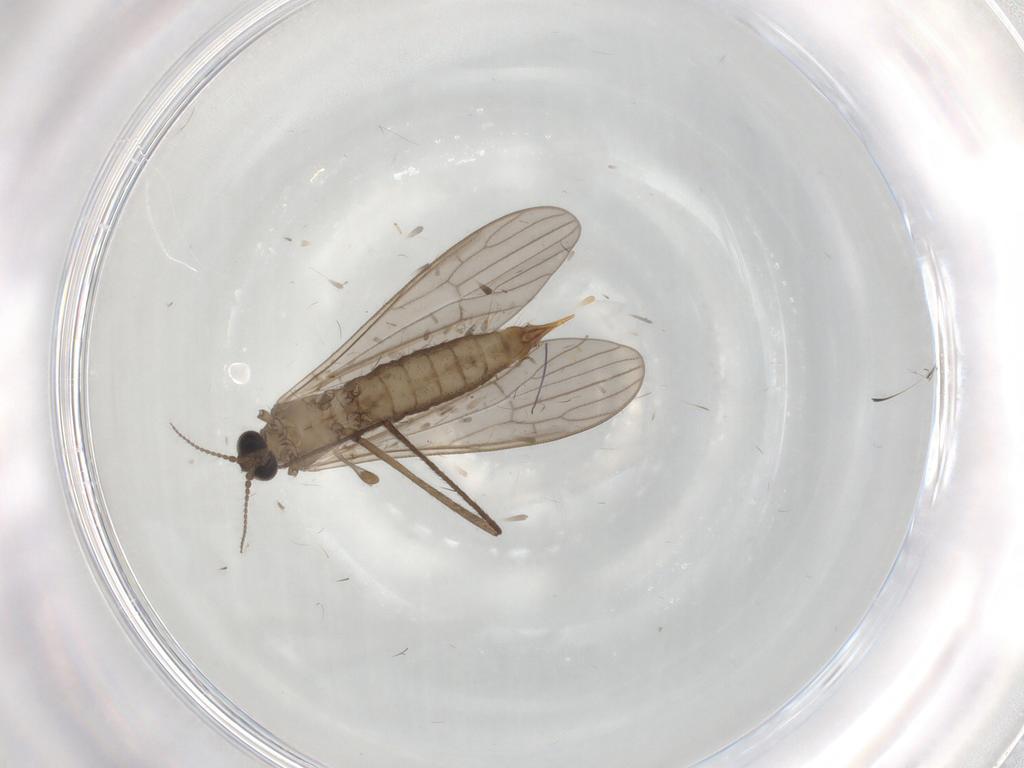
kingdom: Animalia
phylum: Arthropoda
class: Insecta
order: Diptera
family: Limoniidae
